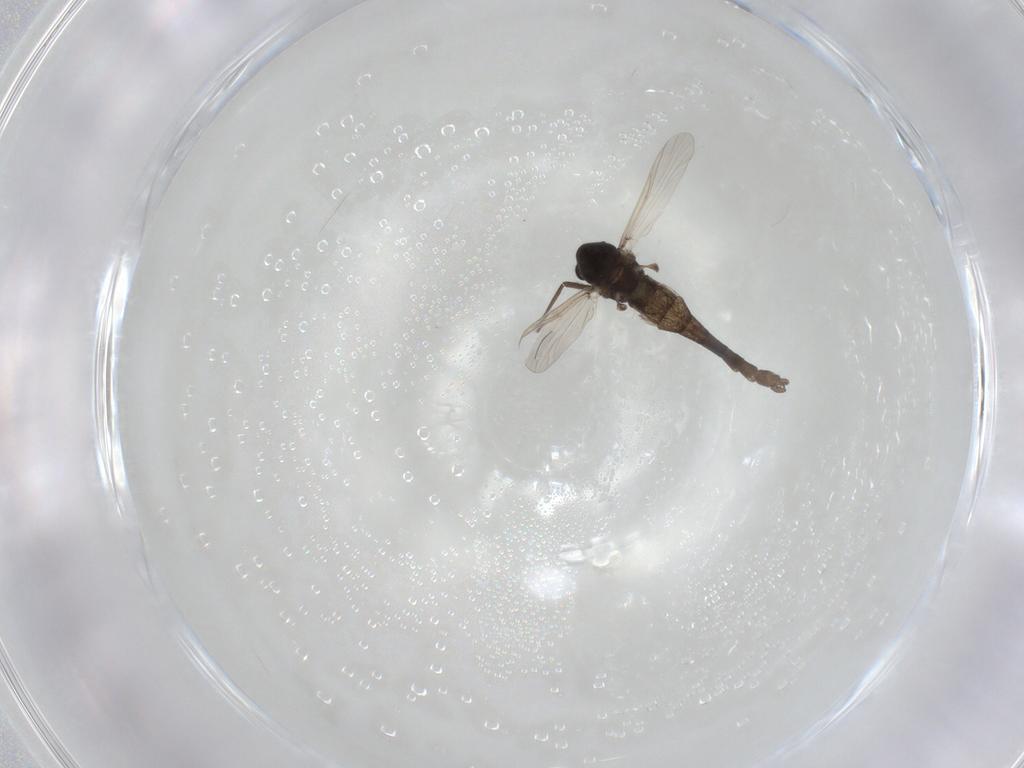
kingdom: Animalia
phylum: Arthropoda
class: Insecta
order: Diptera
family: Chironomidae
